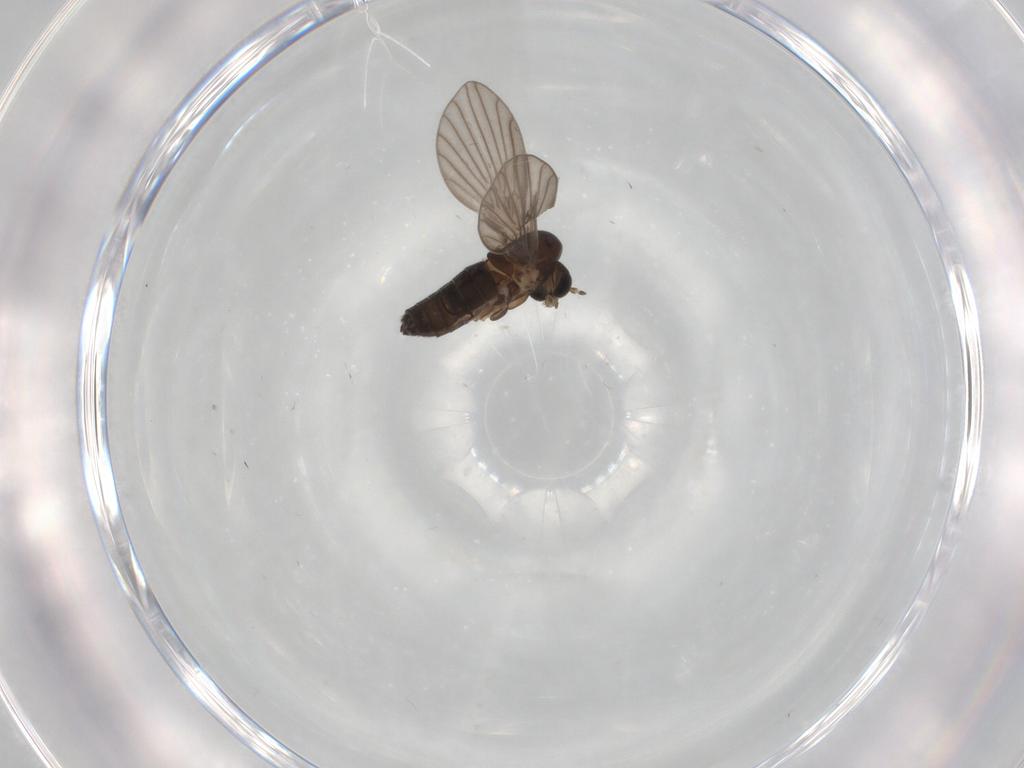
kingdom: Animalia
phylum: Arthropoda
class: Insecta
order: Diptera
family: Fannia
